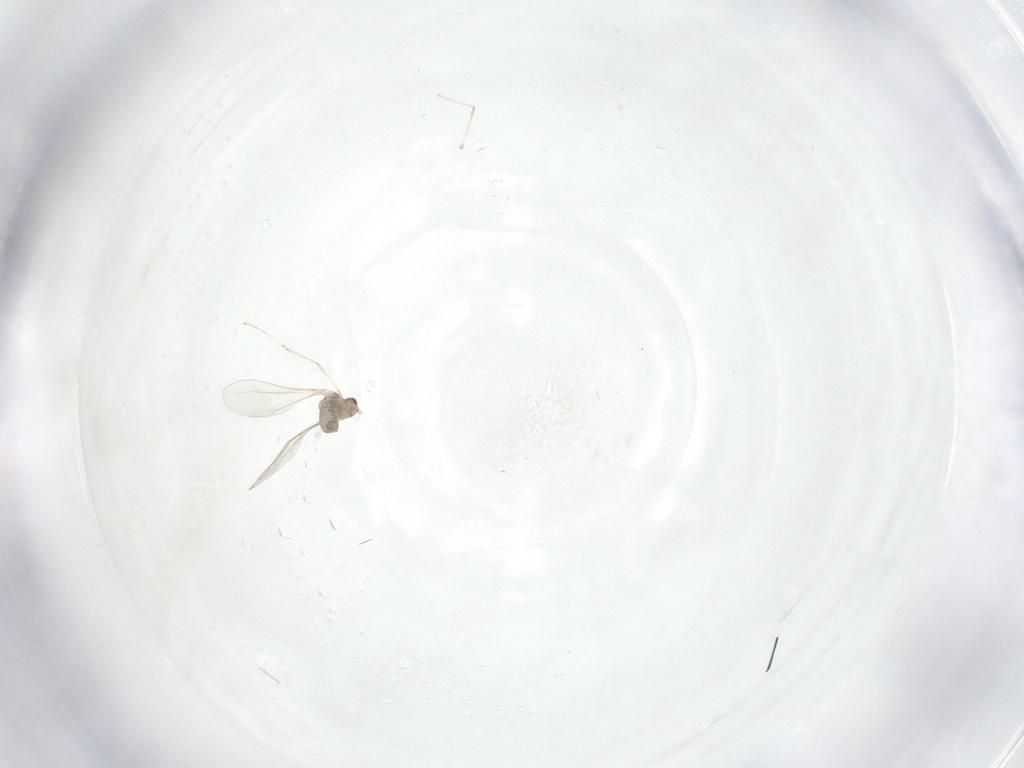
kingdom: Animalia
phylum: Arthropoda
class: Insecta
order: Diptera
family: Cecidomyiidae
